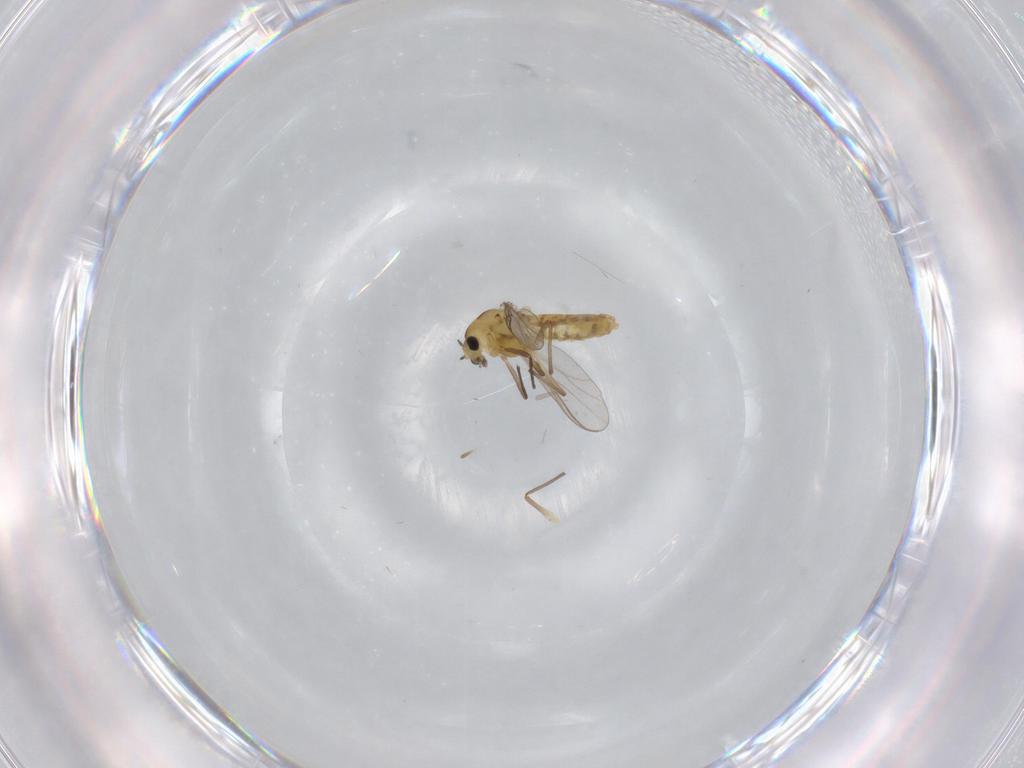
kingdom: Animalia
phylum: Arthropoda
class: Insecta
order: Diptera
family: Chironomidae
